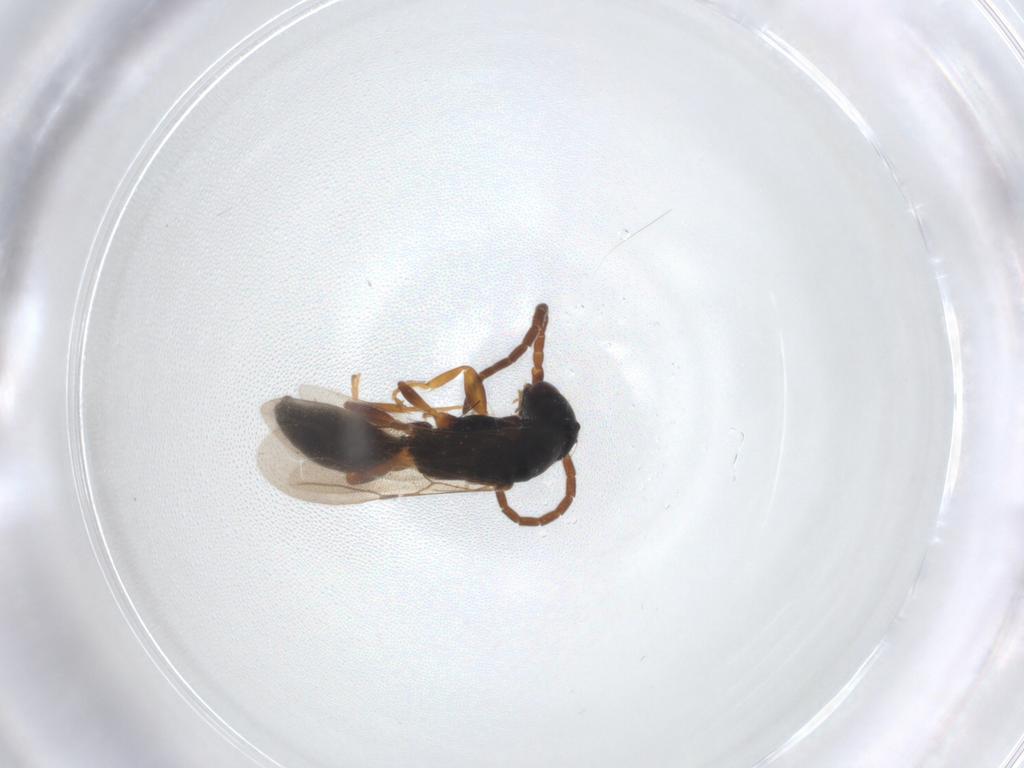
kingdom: Animalia
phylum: Arthropoda
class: Insecta
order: Hymenoptera
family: Bethylidae
